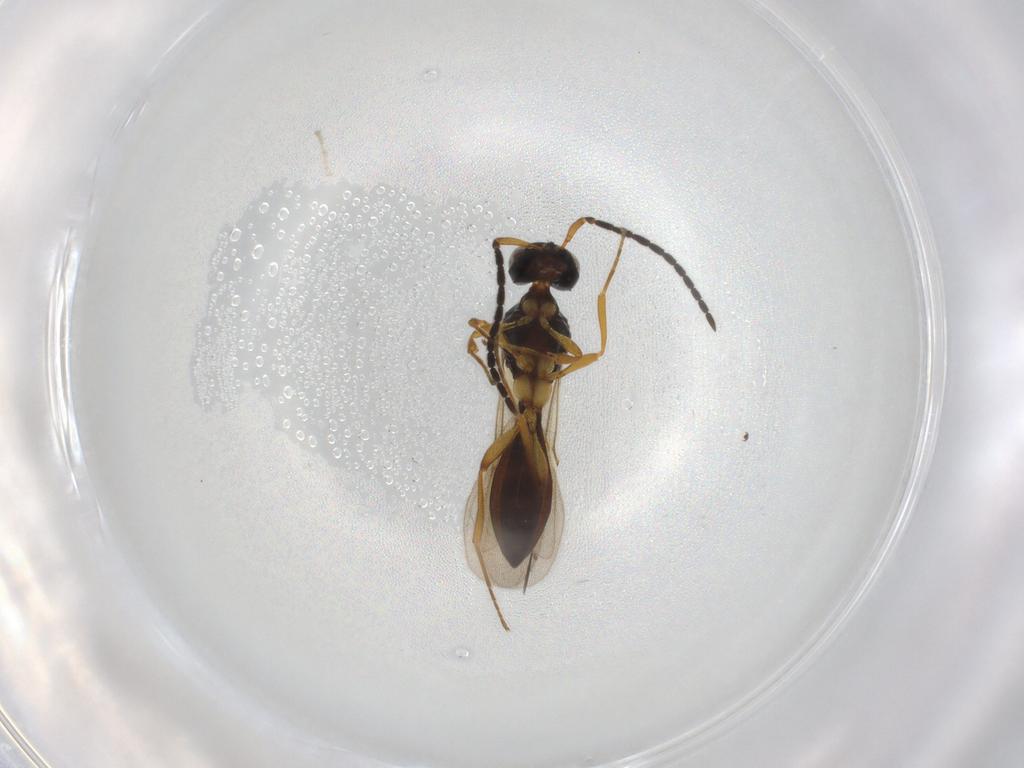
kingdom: Animalia
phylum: Arthropoda
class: Insecta
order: Hymenoptera
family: Scelionidae
